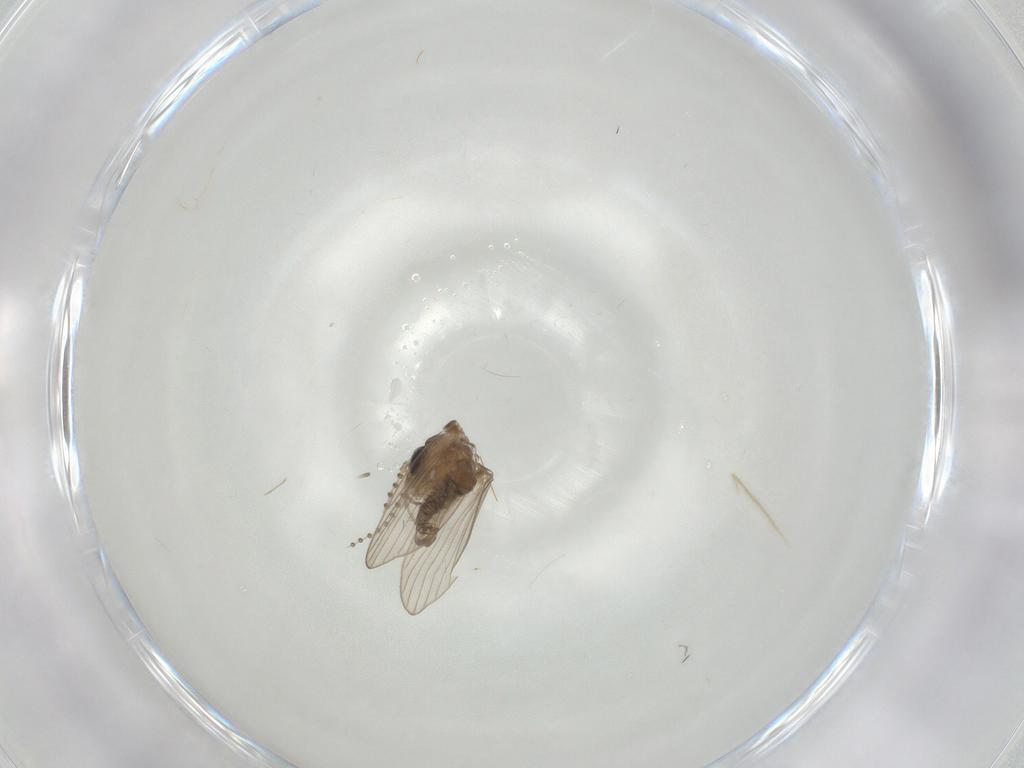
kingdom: Animalia
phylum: Arthropoda
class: Insecta
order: Diptera
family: Psychodidae
